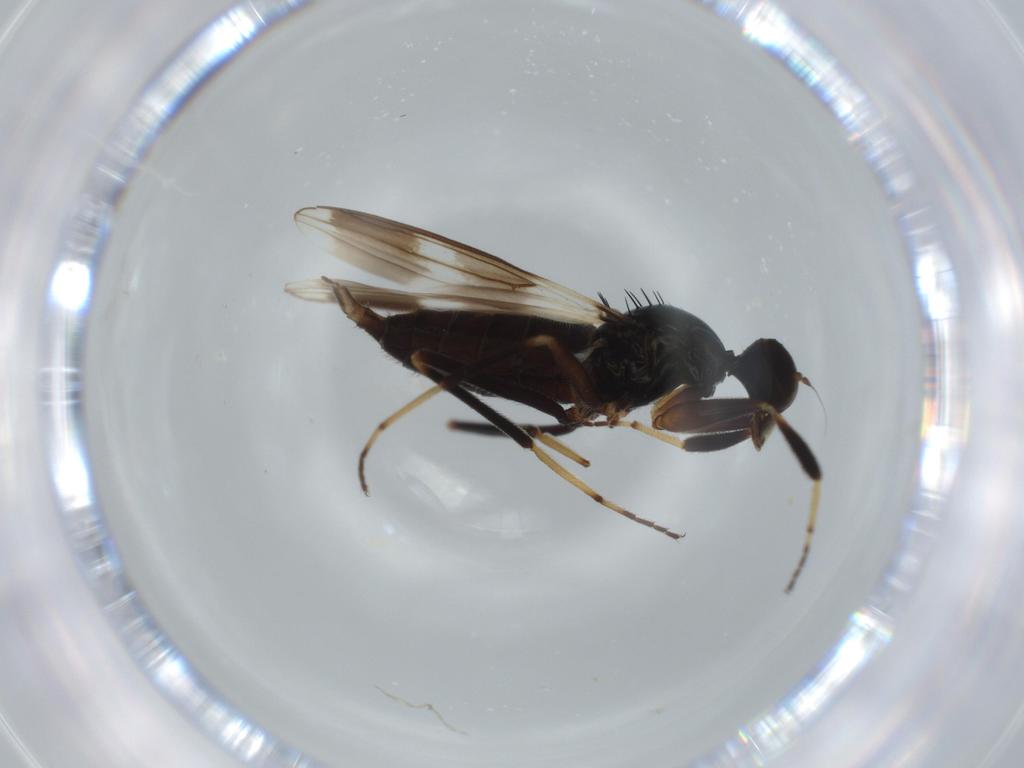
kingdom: Animalia
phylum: Arthropoda
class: Insecta
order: Diptera
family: Hybotidae
